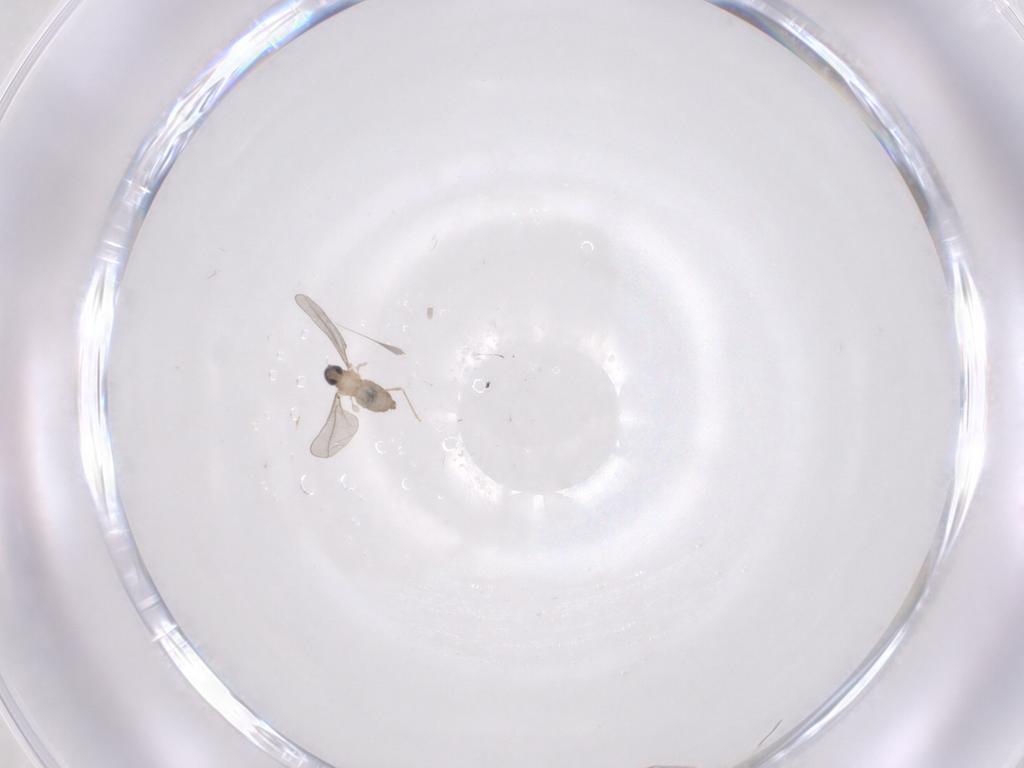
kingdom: Animalia
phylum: Arthropoda
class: Insecta
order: Diptera
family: Cecidomyiidae
